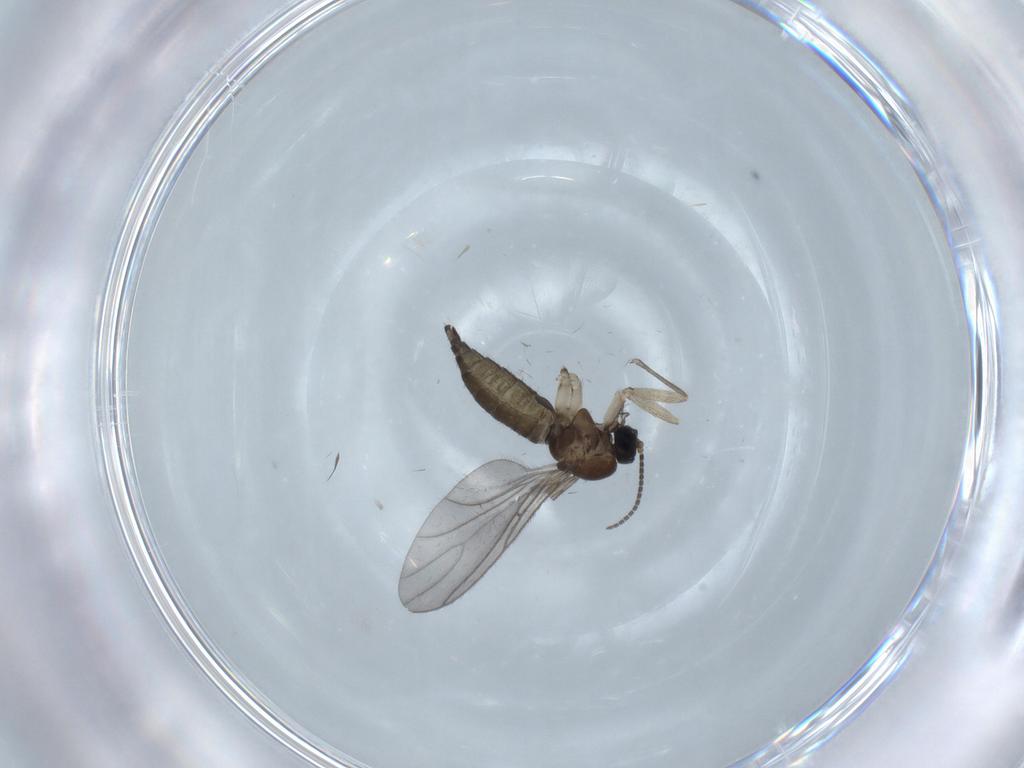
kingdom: Animalia
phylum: Arthropoda
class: Insecta
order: Diptera
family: Sciaridae
